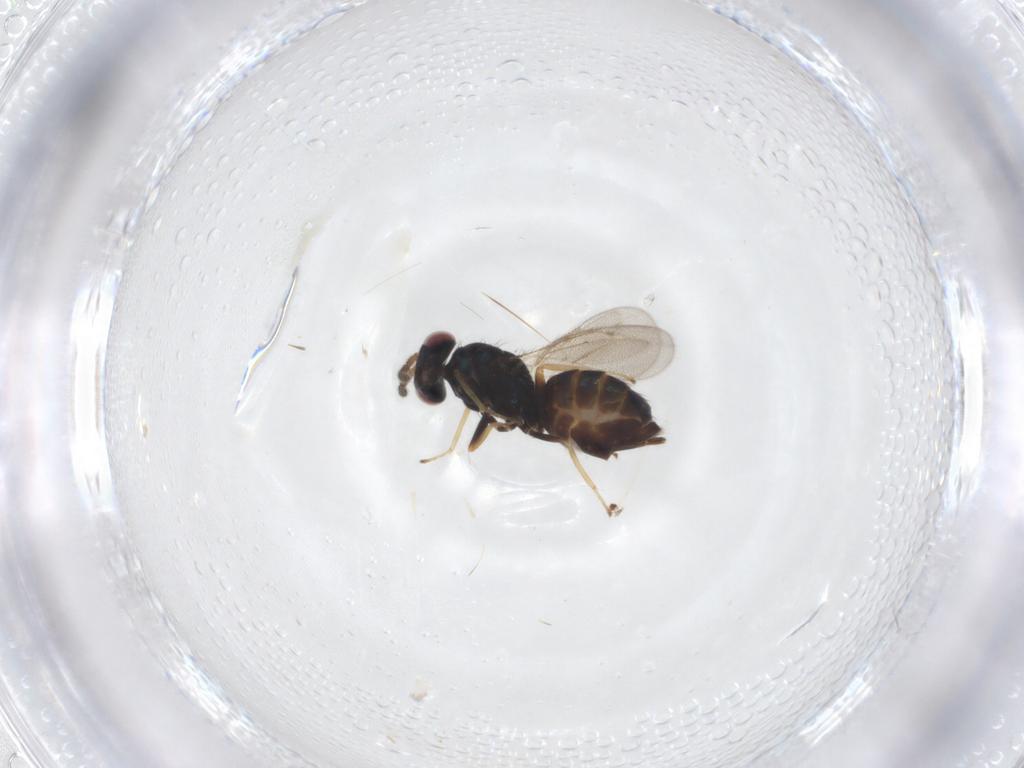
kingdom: Animalia
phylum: Arthropoda
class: Insecta
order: Hymenoptera
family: Eulophidae
